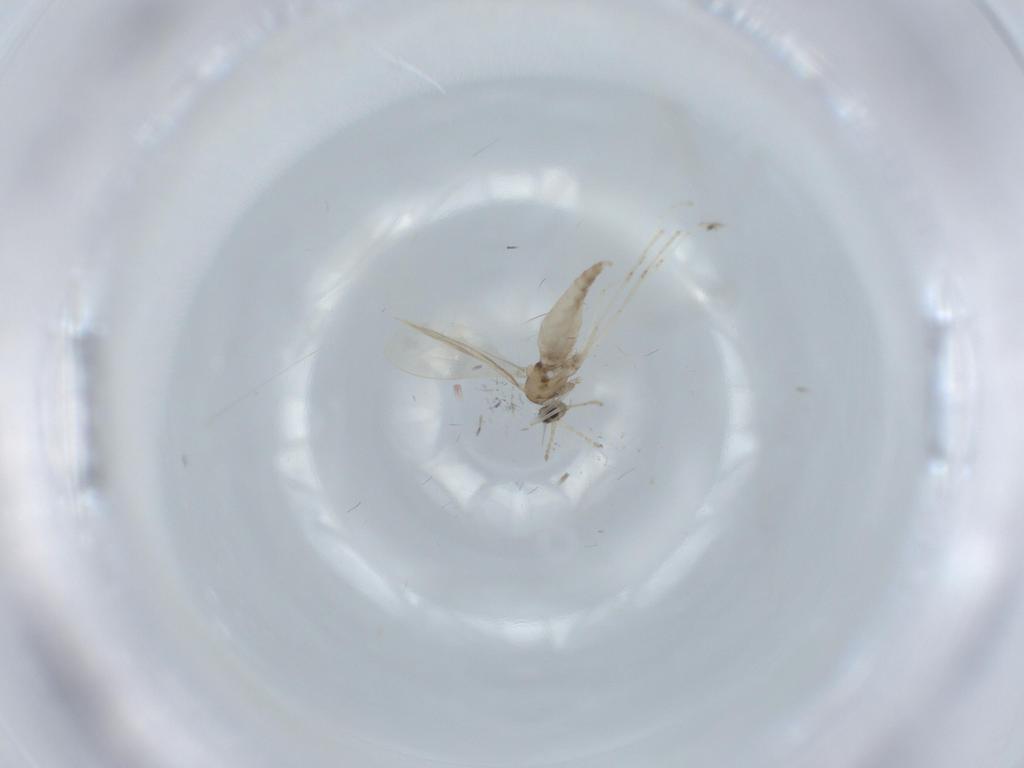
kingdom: Animalia
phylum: Arthropoda
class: Insecta
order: Diptera
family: Cecidomyiidae
